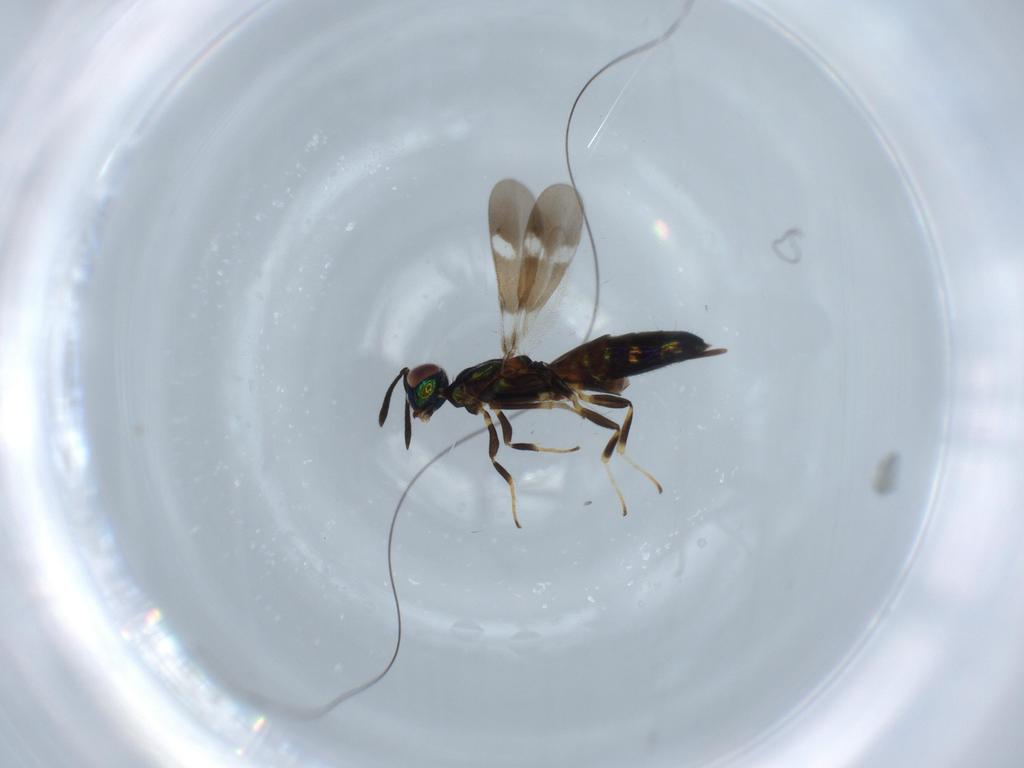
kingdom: Animalia
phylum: Arthropoda
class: Insecta
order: Hymenoptera
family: Eupelmidae
